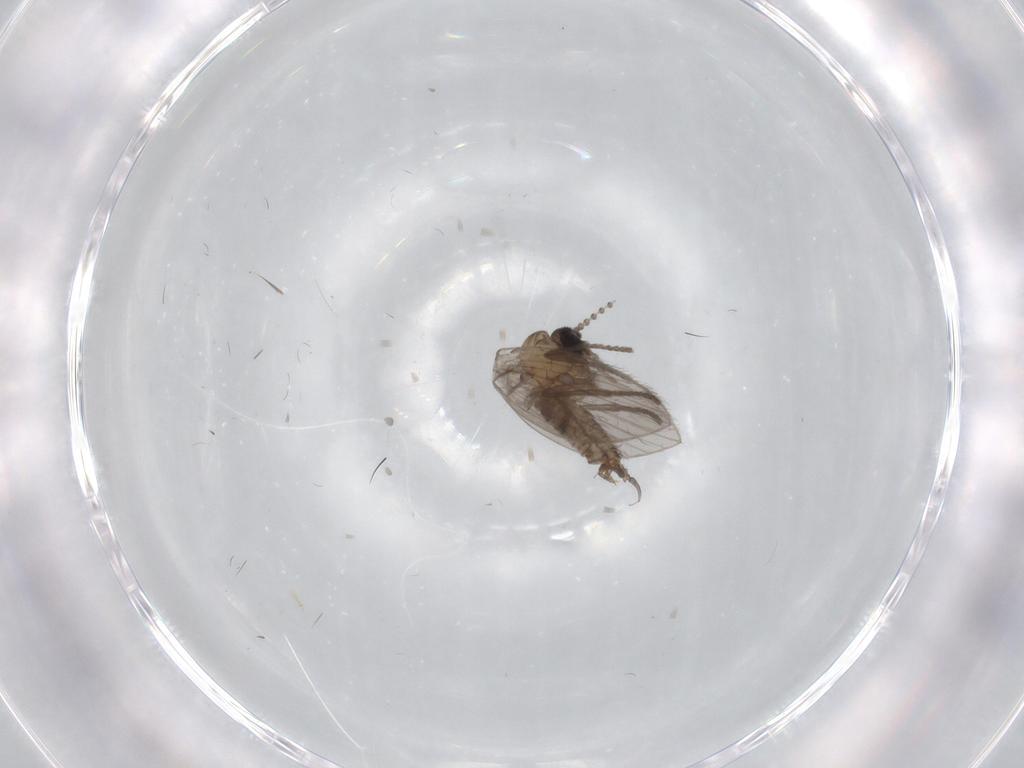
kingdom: Animalia
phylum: Arthropoda
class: Insecta
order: Diptera
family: Psychodidae
